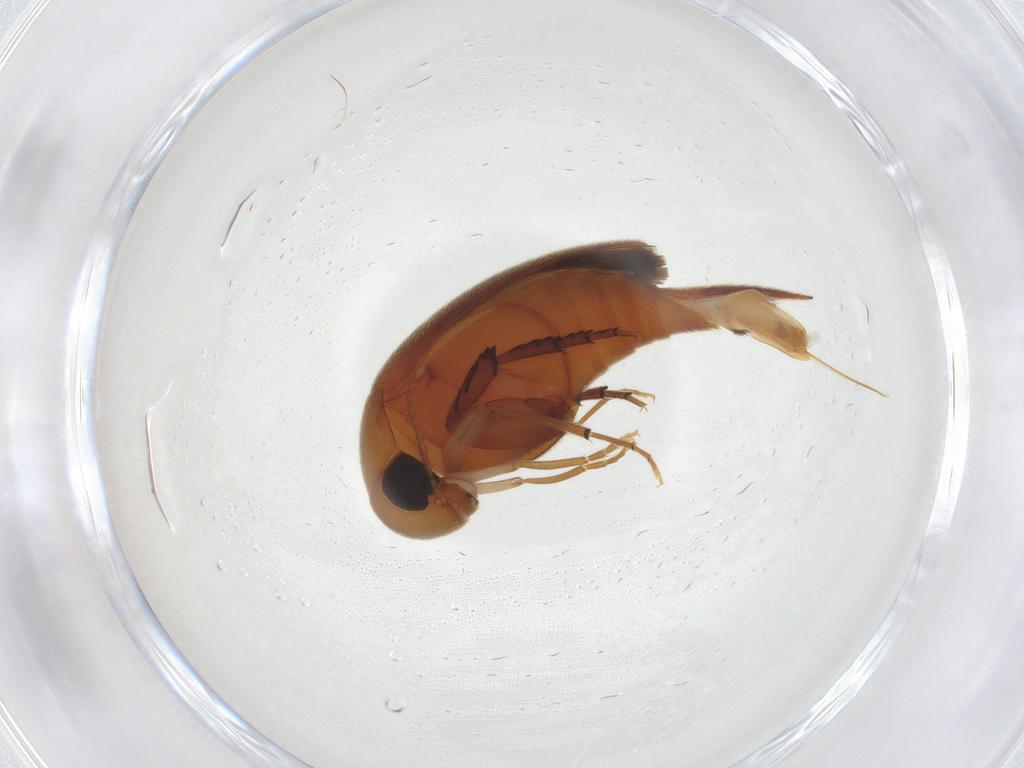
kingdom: Animalia
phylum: Arthropoda
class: Insecta
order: Coleoptera
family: Mordellidae
